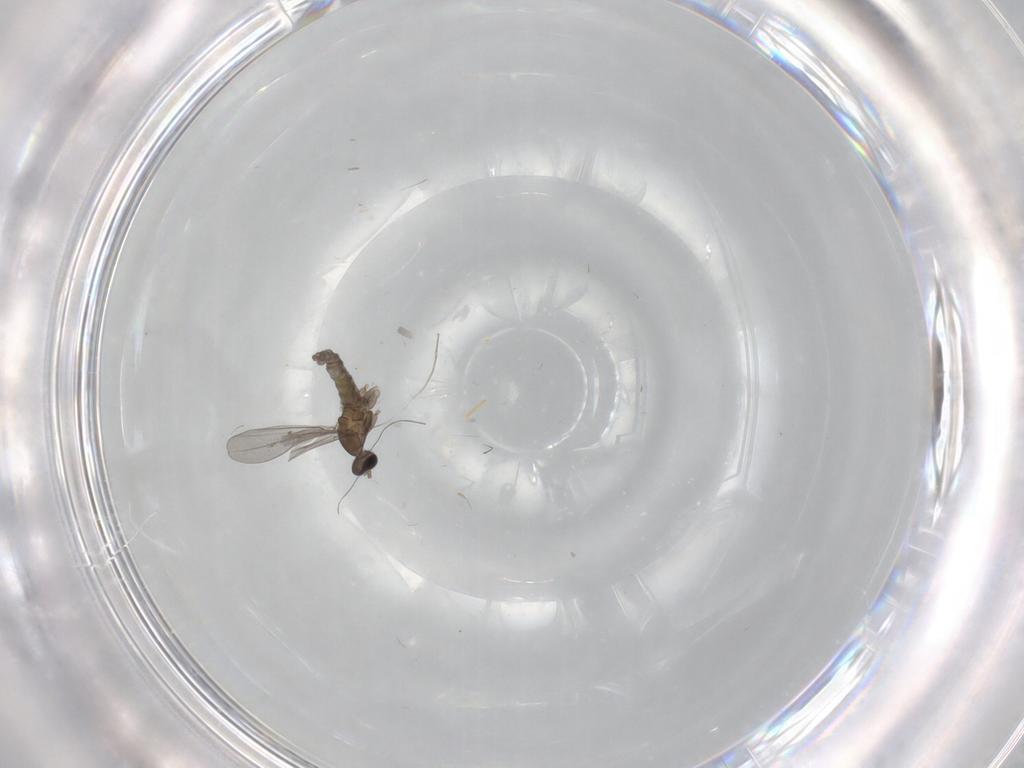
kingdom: Animalia
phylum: Arthropoda
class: Insecta
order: Diptera
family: Cecidomyiidae
